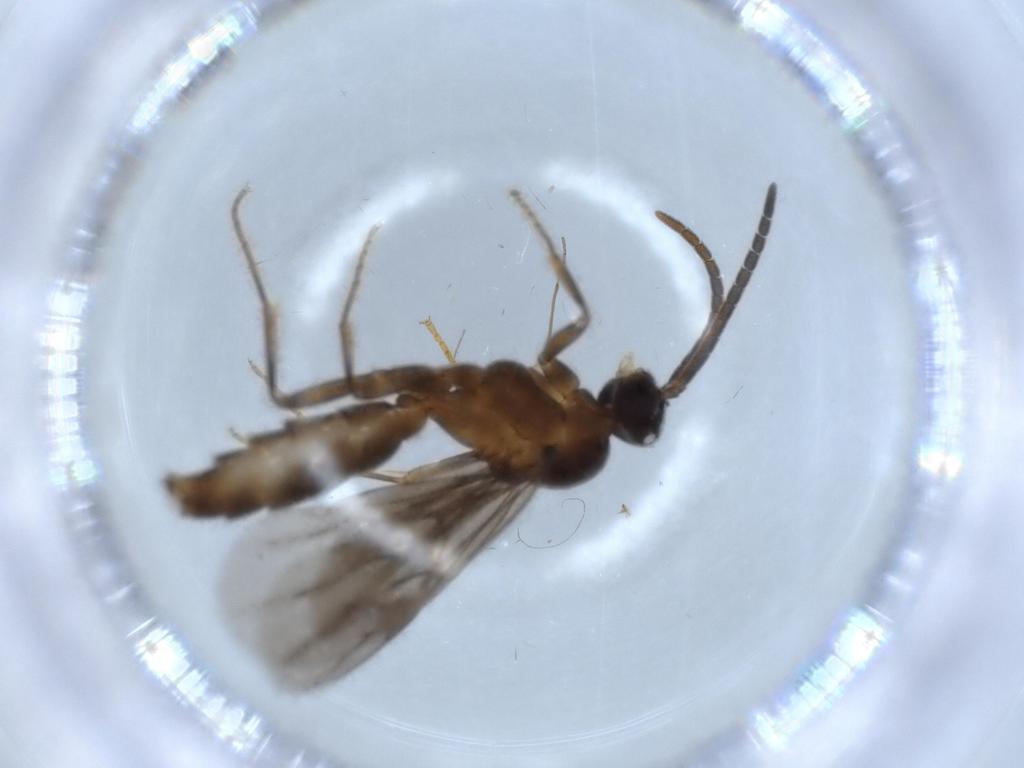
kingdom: Animalia
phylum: Arthropoda
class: Insecta
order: Hymenoptera
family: Formicidae
